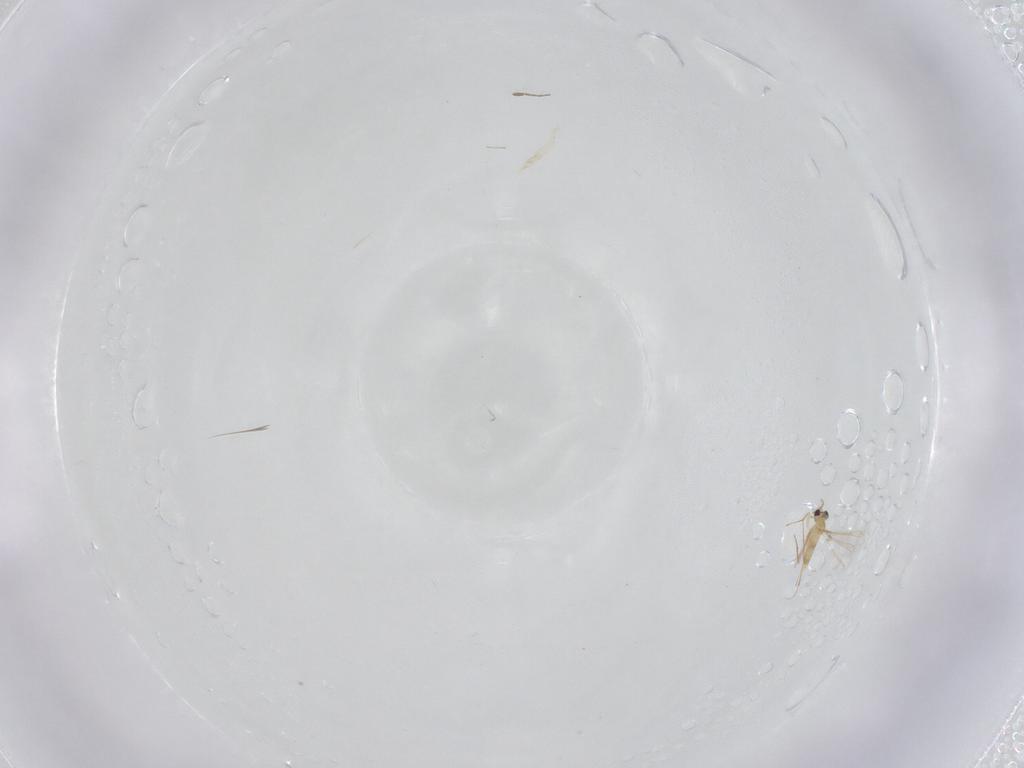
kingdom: Animalia
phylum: Arthropoda
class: Insecta
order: Hymenoptera
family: Mymaridae
